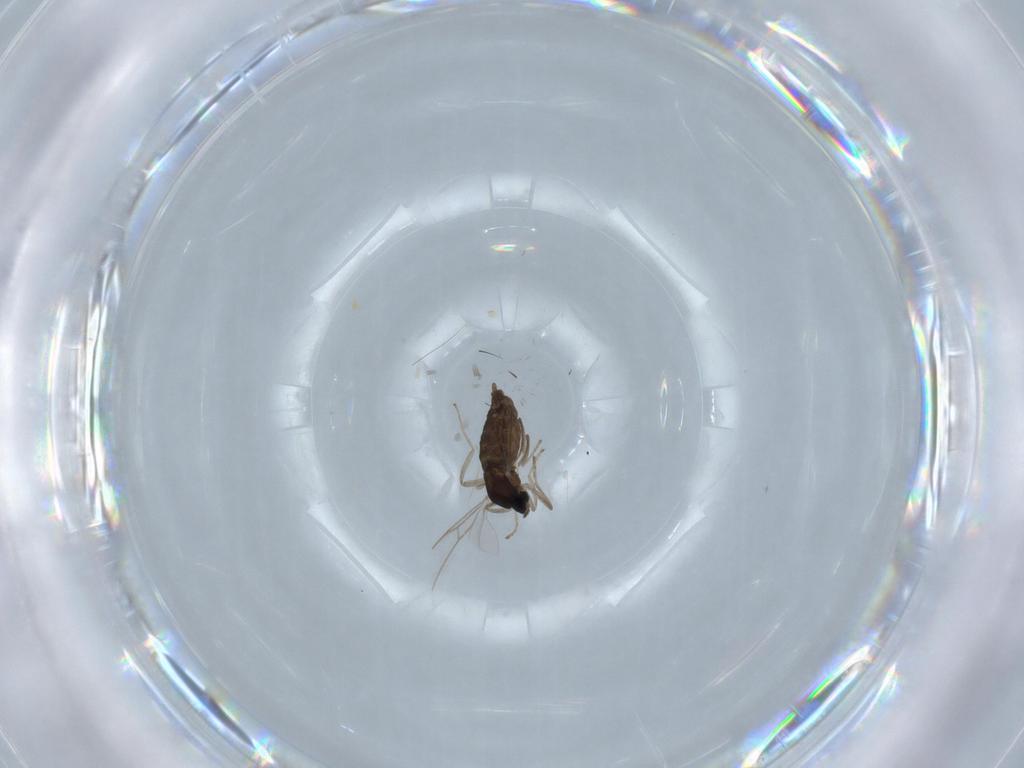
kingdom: Animalia
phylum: Arthropoda
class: Insecta
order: Diptera
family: Cecidomyiidae
